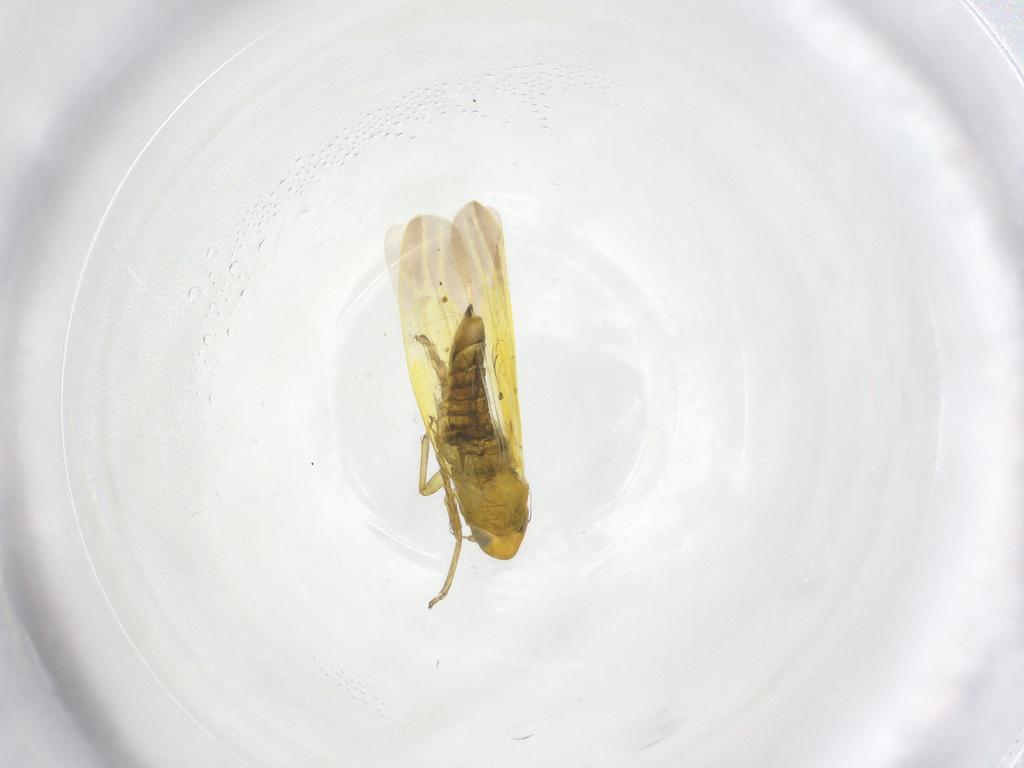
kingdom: Animalia
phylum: Arthropoda
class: Insecta
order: Hemiptera
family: Cicadellidae
